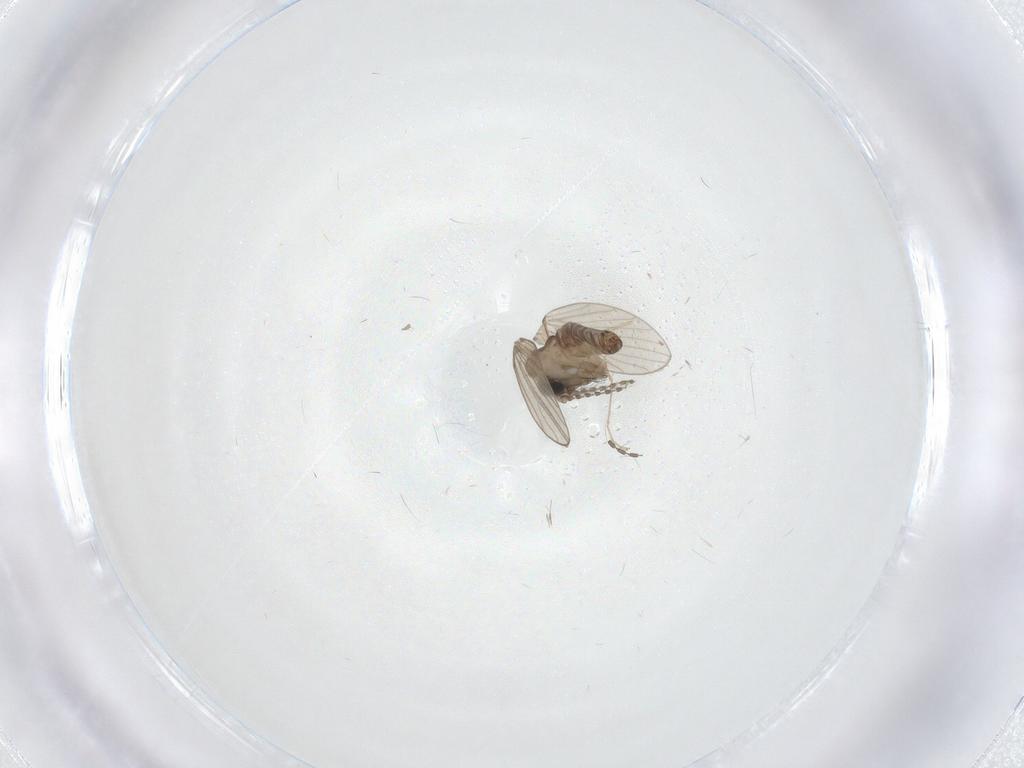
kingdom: Animalia
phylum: Arthropoda
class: Insecta
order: Diptera
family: Cecidomyiidae
